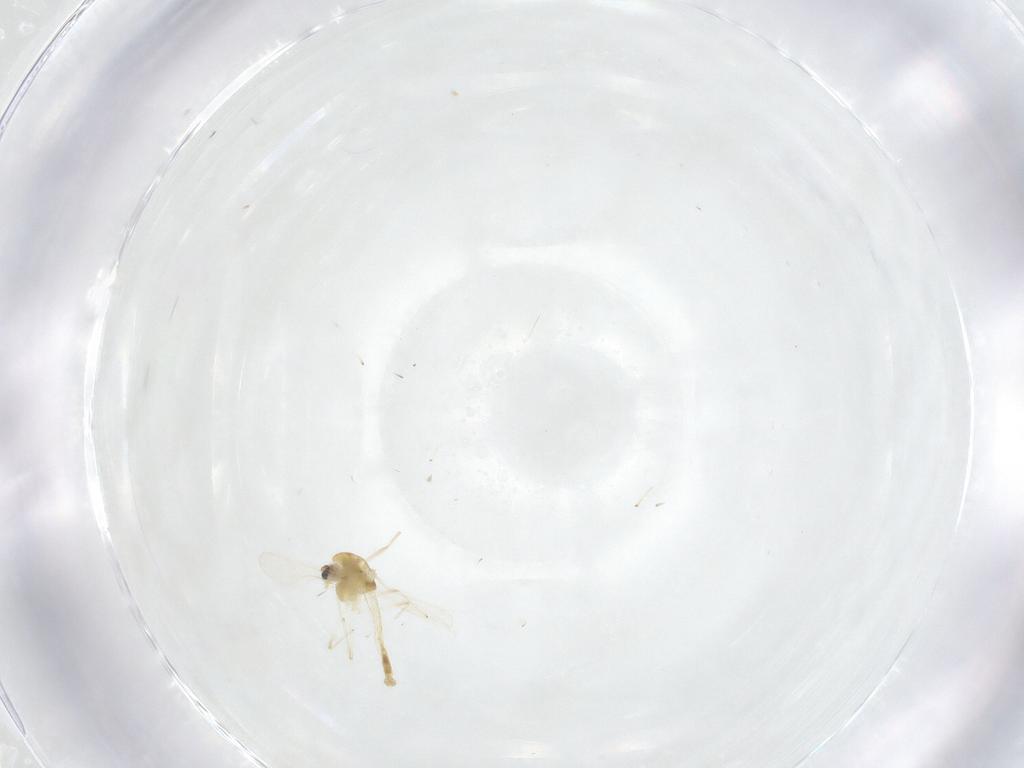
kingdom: Animalia
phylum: Arthropoda
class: Insecta
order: Diptera
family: Chironomidae
